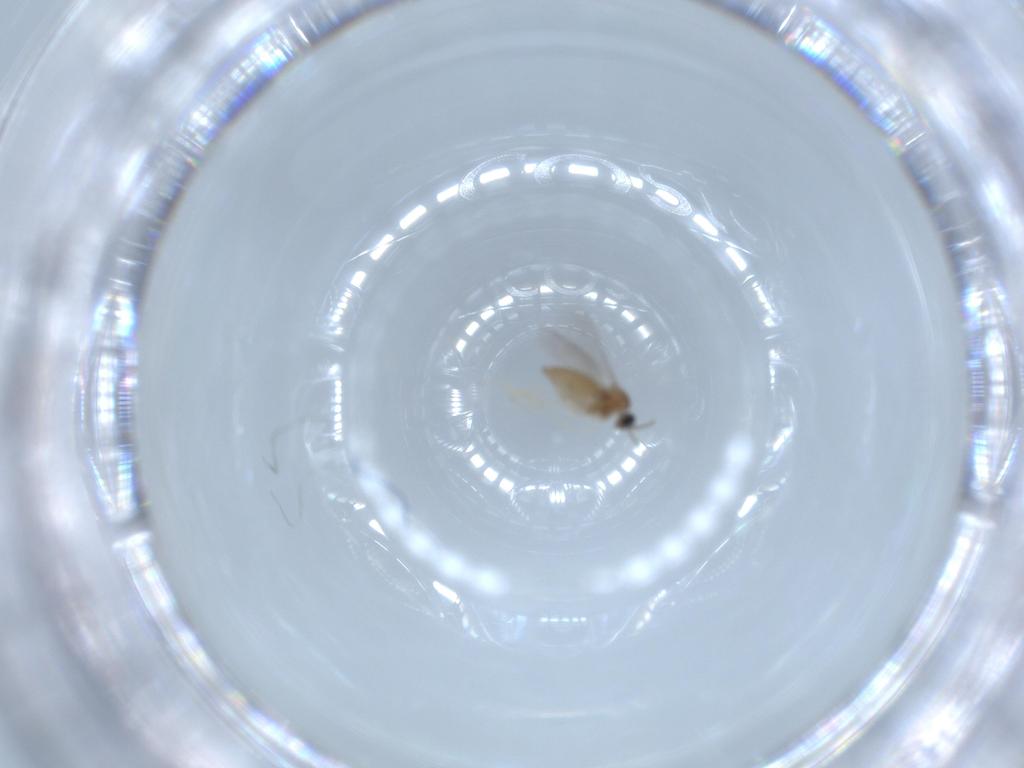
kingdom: Animalia
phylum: Arthropoda
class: Insecta
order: Diptera
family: Cecidomyiidae
